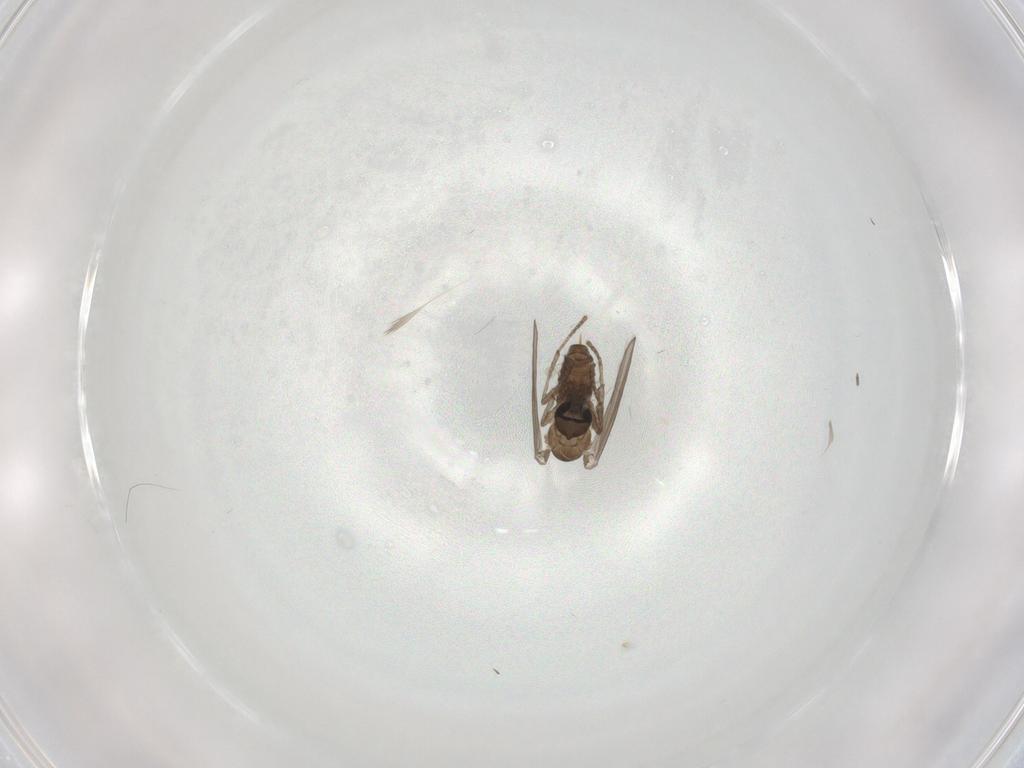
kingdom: Animalia
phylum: Arthropoda
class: Insecta
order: Diptera
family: Psychodidae
